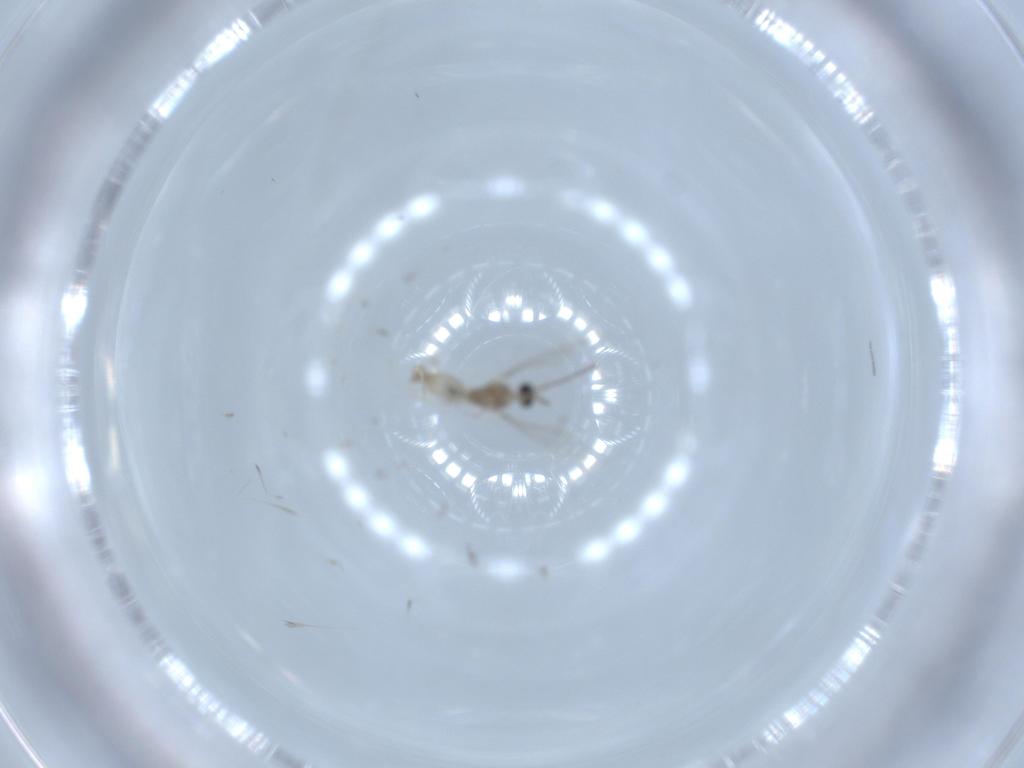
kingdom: Animalia
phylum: Arthropoda
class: Insecta
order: Diptera
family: Cecidomyiidae
